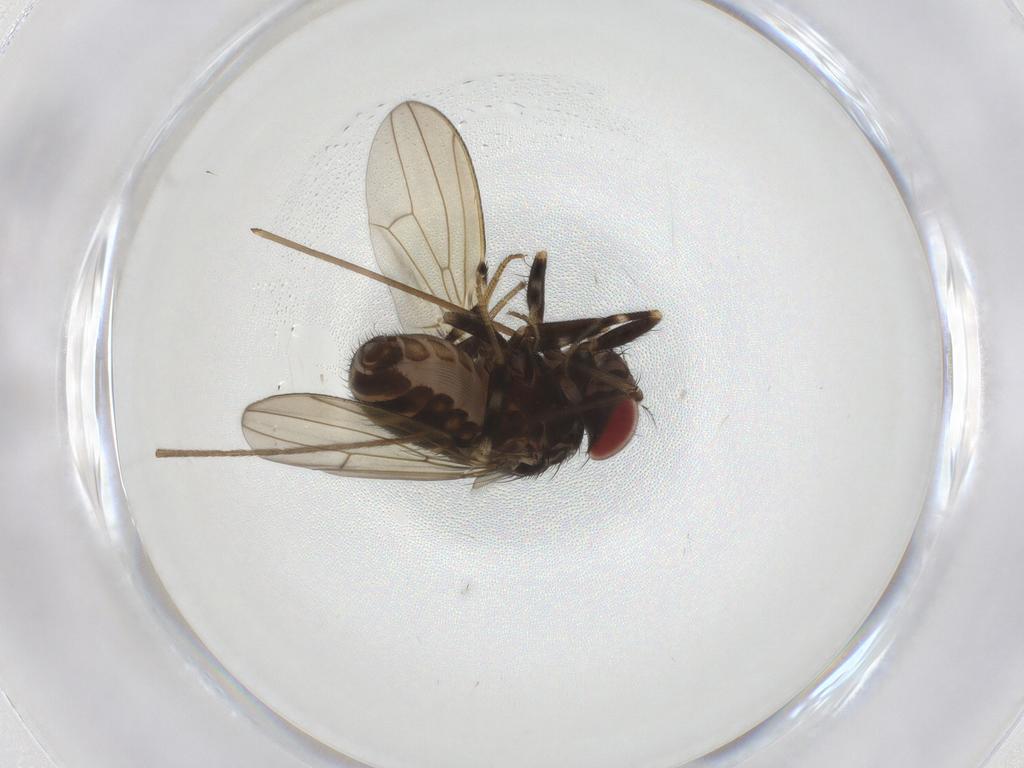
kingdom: Animalia
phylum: Arthropoda
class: Insecta
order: Diptera
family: Drosophilidae
